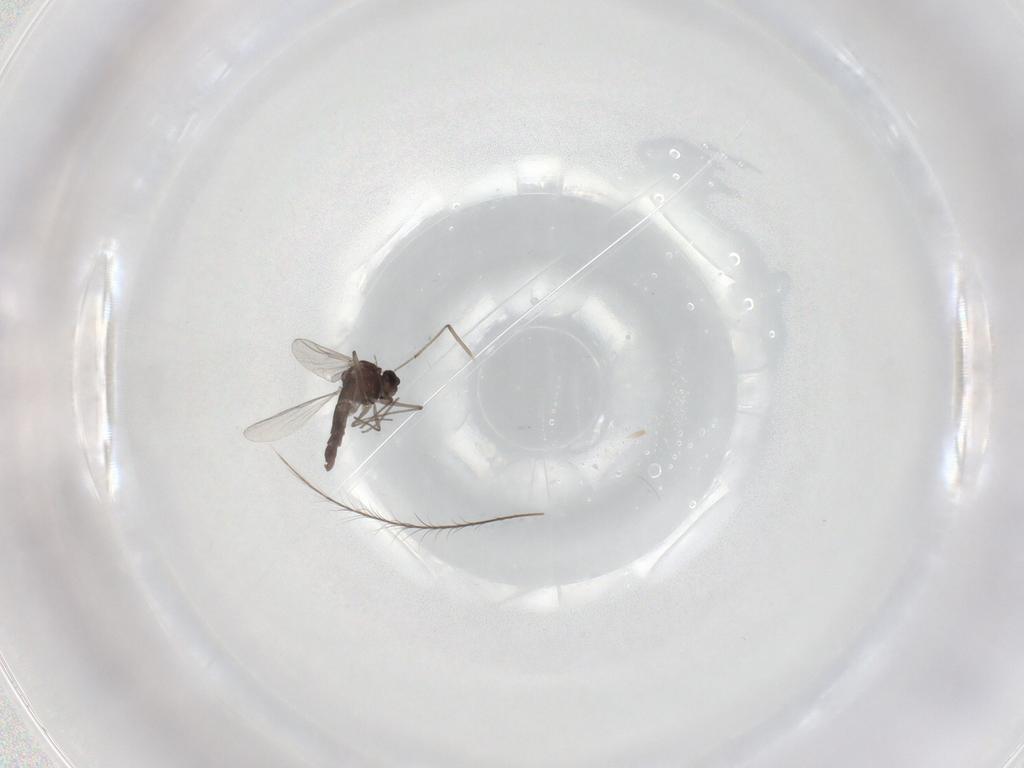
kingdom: Animalia
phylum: Arthropoda
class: Insecta
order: Diptera
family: Chironomidae
